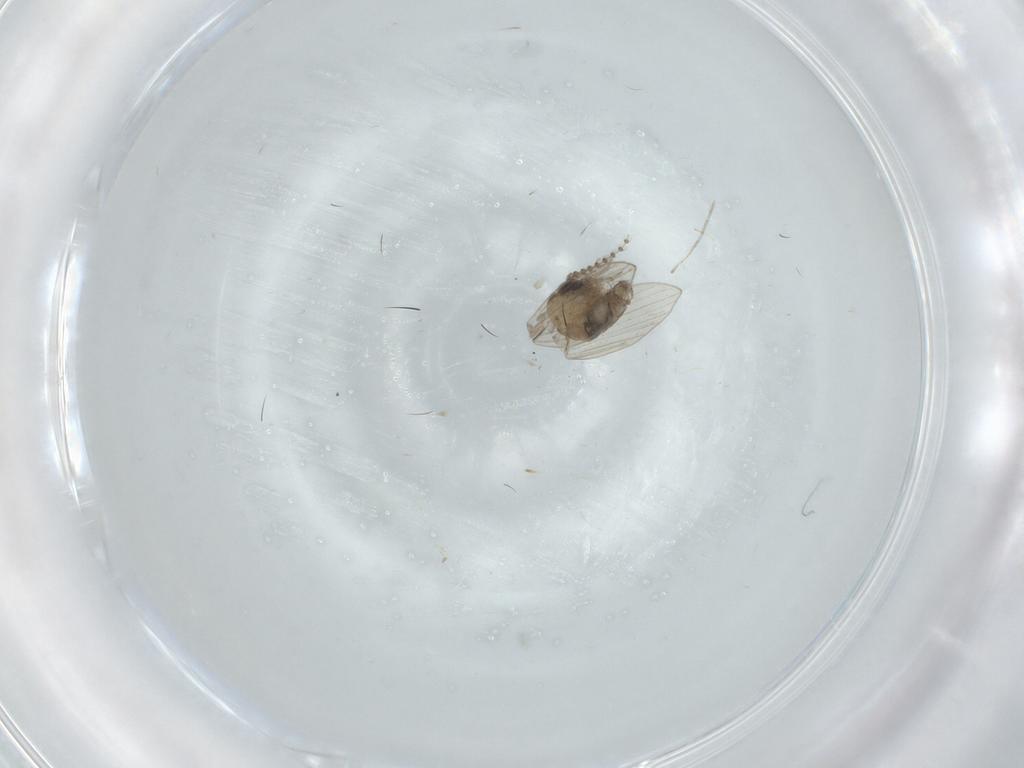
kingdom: Animalia
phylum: Arthropoda
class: Insecta
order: Diptera
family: Psychodidae
